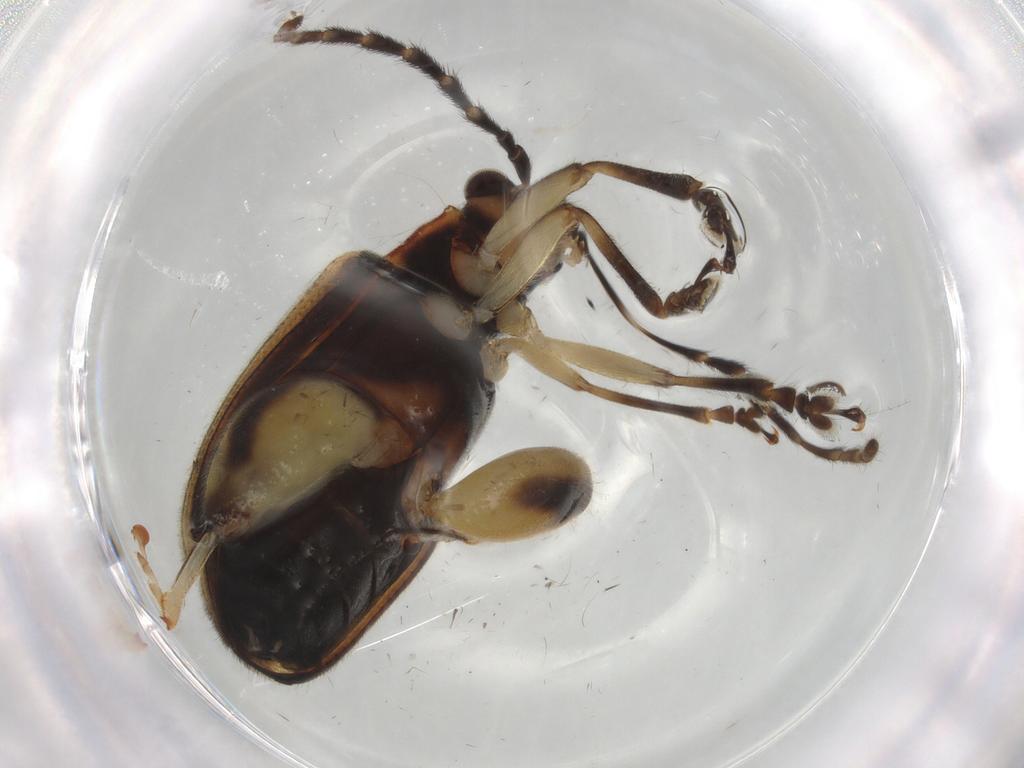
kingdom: Animalia
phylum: Arthropoda
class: Insecta
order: Coleoptera
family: Chrysomelidae
